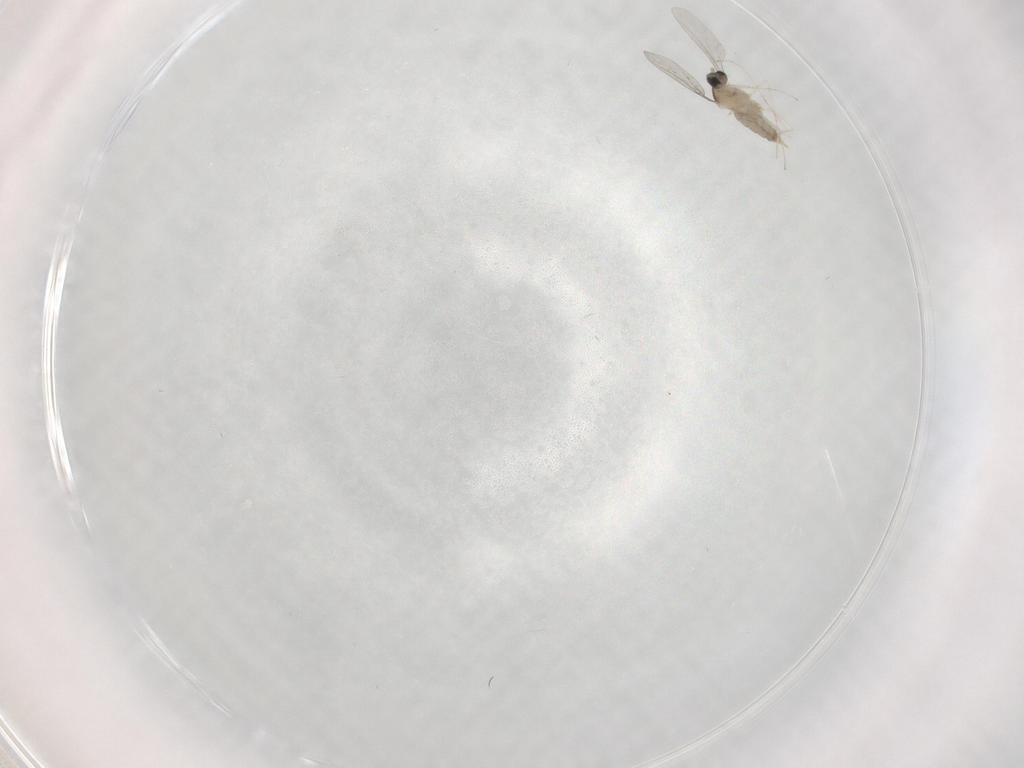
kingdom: Animalia
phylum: Arthropoda
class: Insecta
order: Diptera
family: Cecidomyiidae
